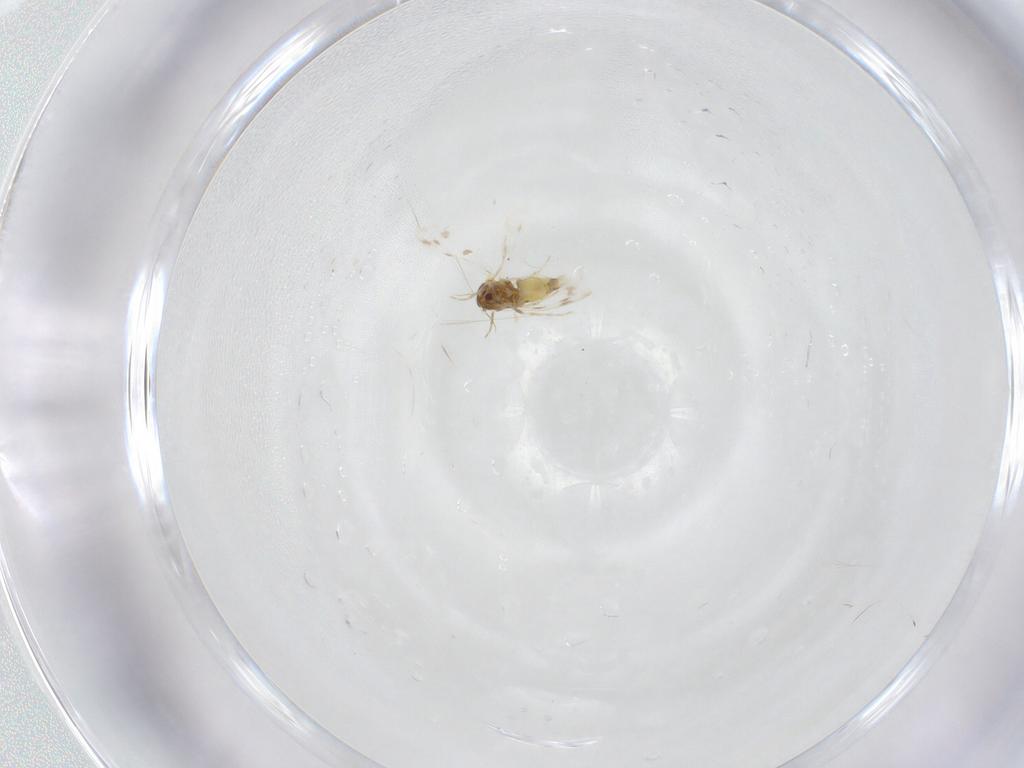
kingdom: Animalia
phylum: Arthropoda
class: Insecta
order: Hemiptera
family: Aleyrodidae
